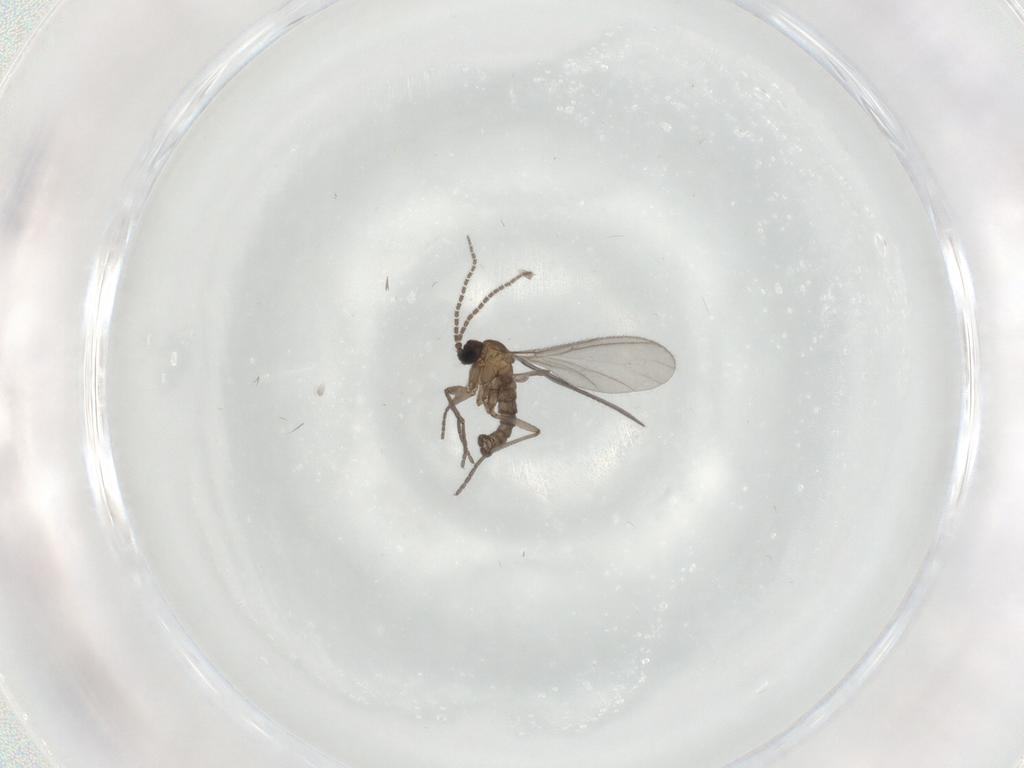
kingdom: Animalia
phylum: Arthropoda
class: Insecta
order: Diptera
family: Sciaridae
